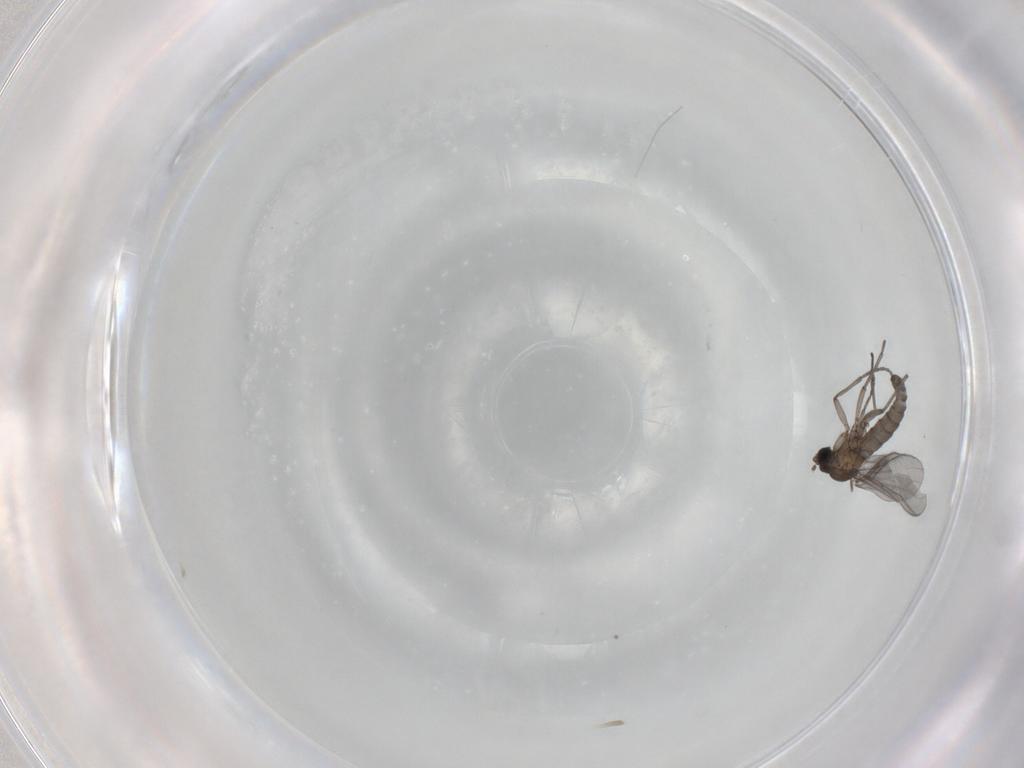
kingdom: Animalia
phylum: Arthropoda
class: Insecta
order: Diptera
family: Sciaridae
